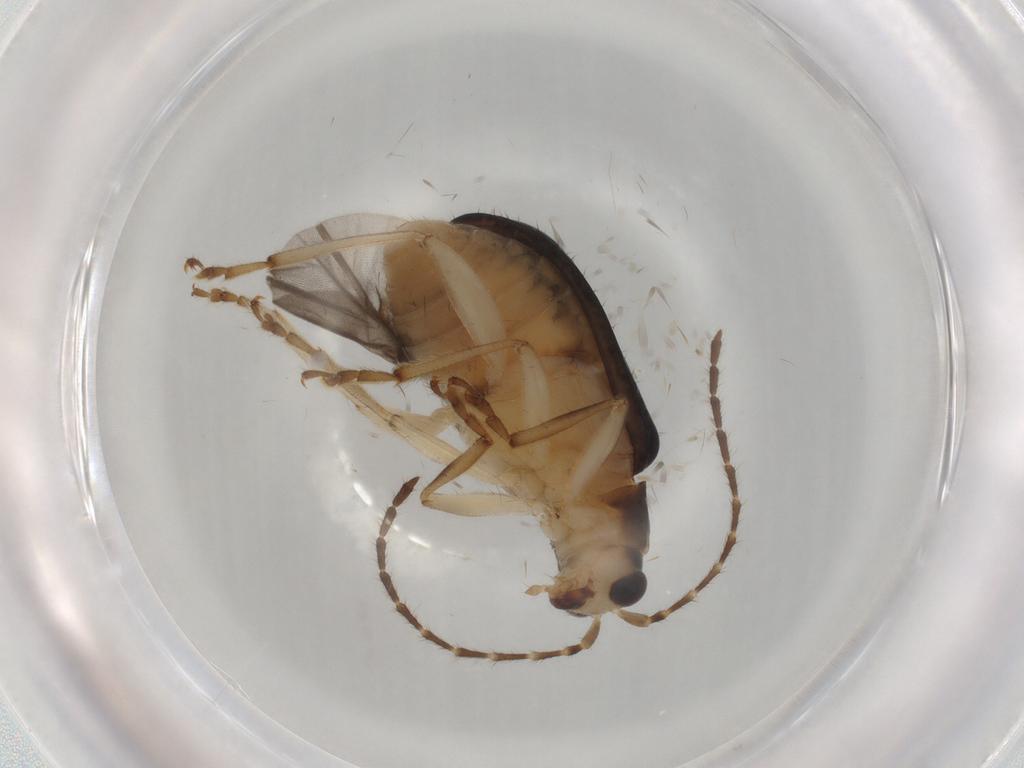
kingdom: Animalia
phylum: Arthropoda
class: Insecta
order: Coleoptera
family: Chrysomelidae
